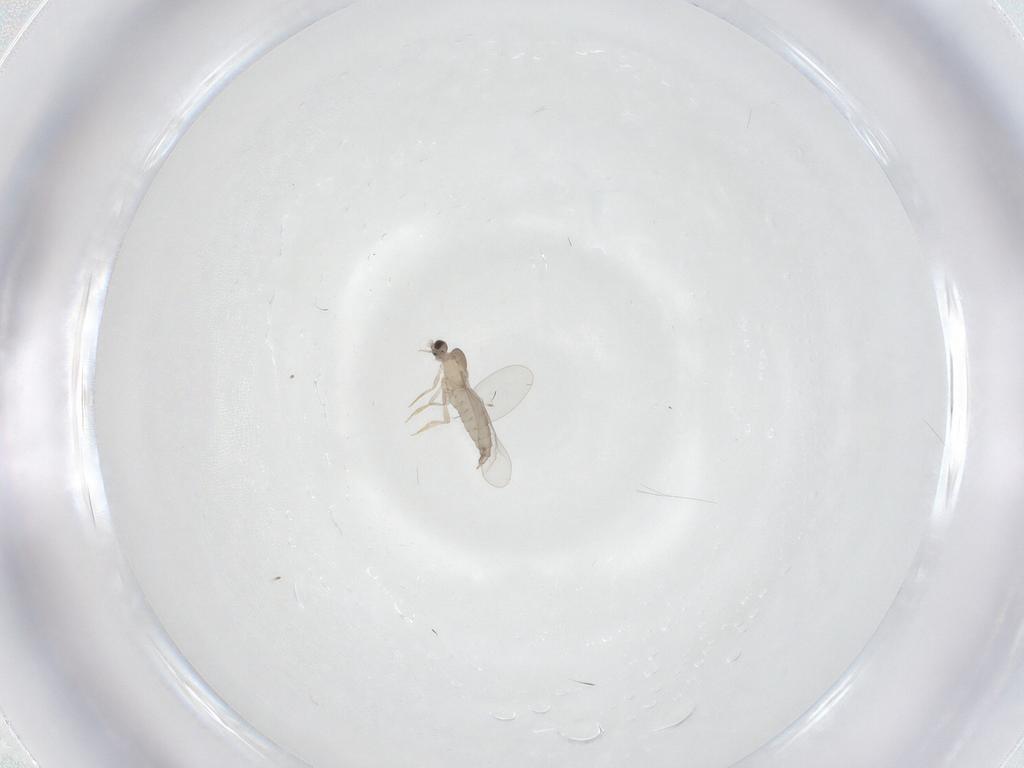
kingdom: Animalia
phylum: Arthropoda
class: Insecta
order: Diptera
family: Cecidomyiidae
